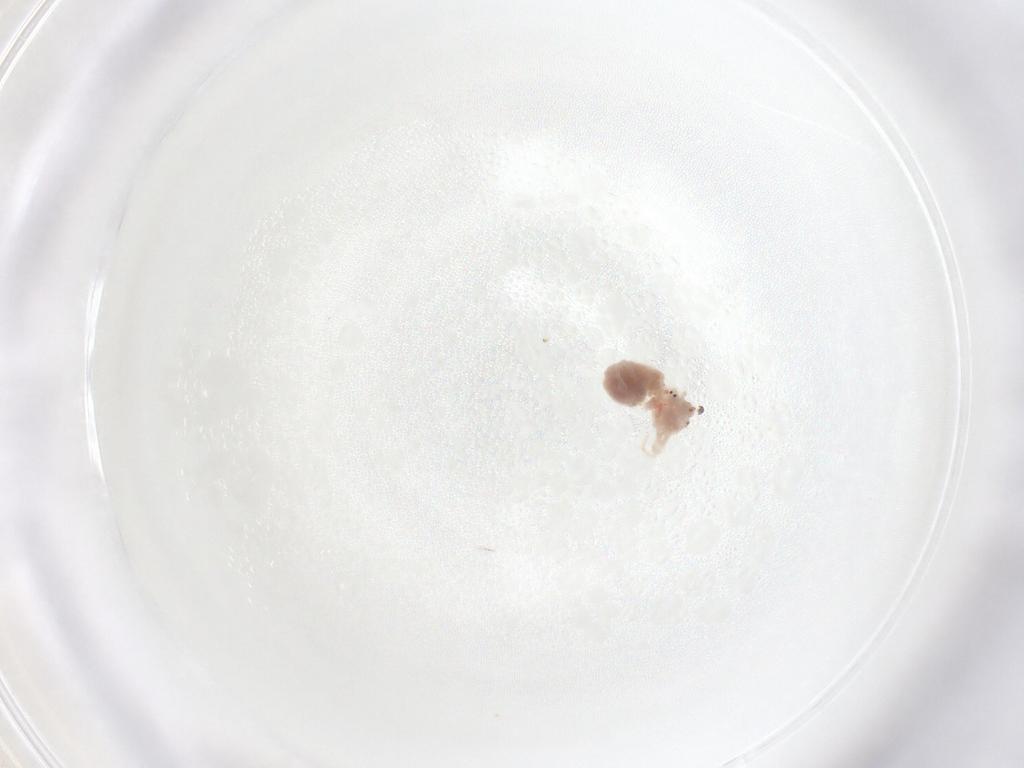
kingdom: Animalia
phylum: Arthropoda
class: Arachnida
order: Trombidiformes
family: Bdellidae
